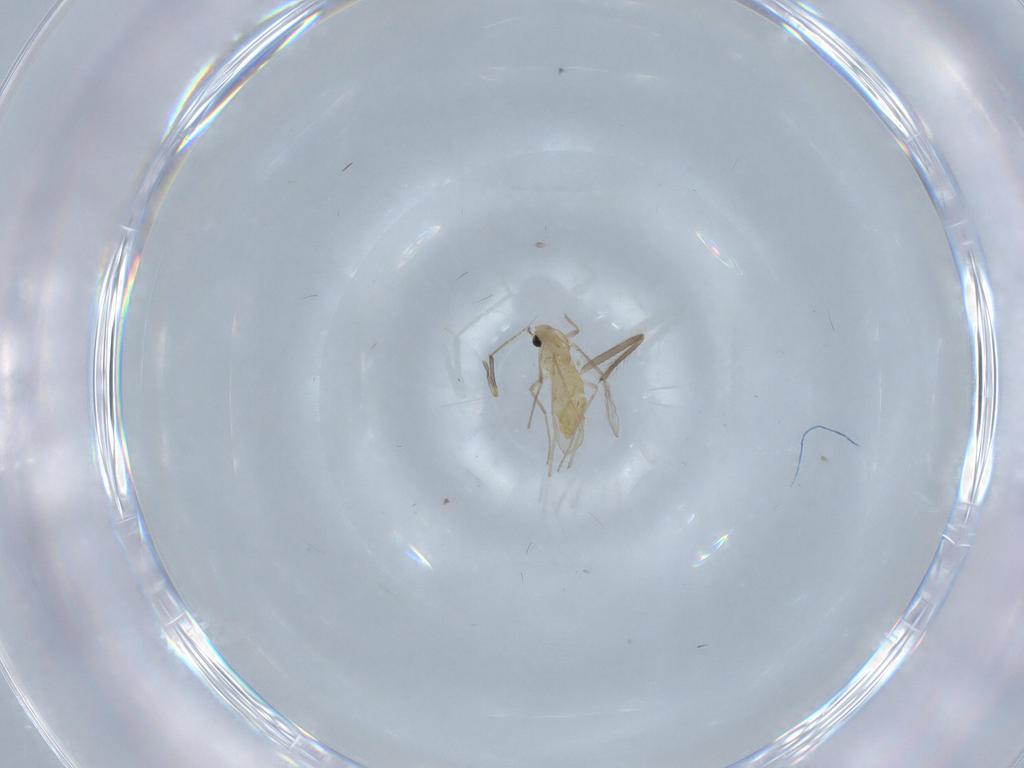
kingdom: Animalia
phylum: Arthropoda
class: Insecta
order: Diptera
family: Chironomidae
